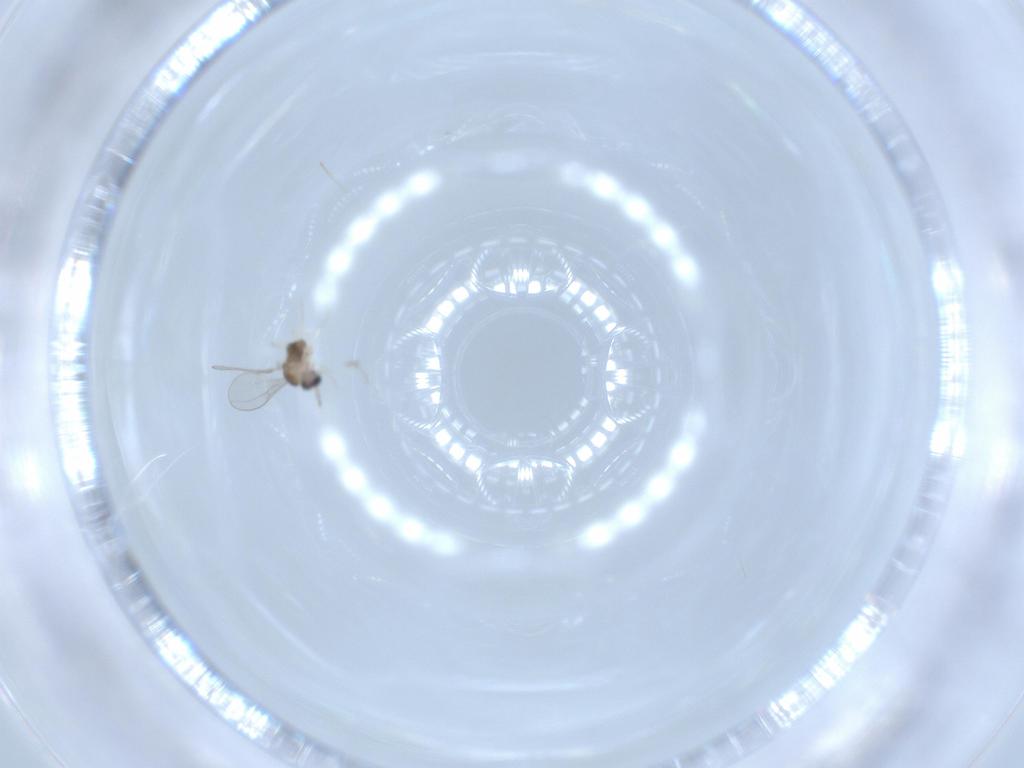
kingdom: Animalia
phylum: Arthropoda
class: Insecta
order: Diptera
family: Cecidomyiidae
